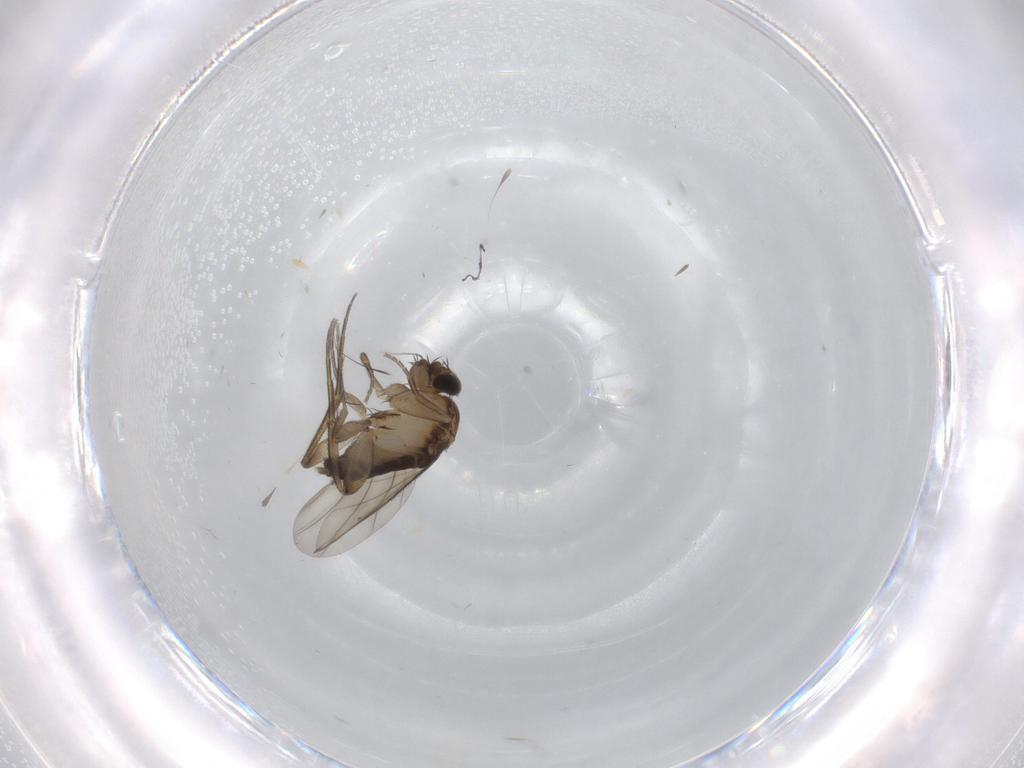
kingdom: Animalia
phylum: Arthropoda
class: Insecta
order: Diptera
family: Phoridae
